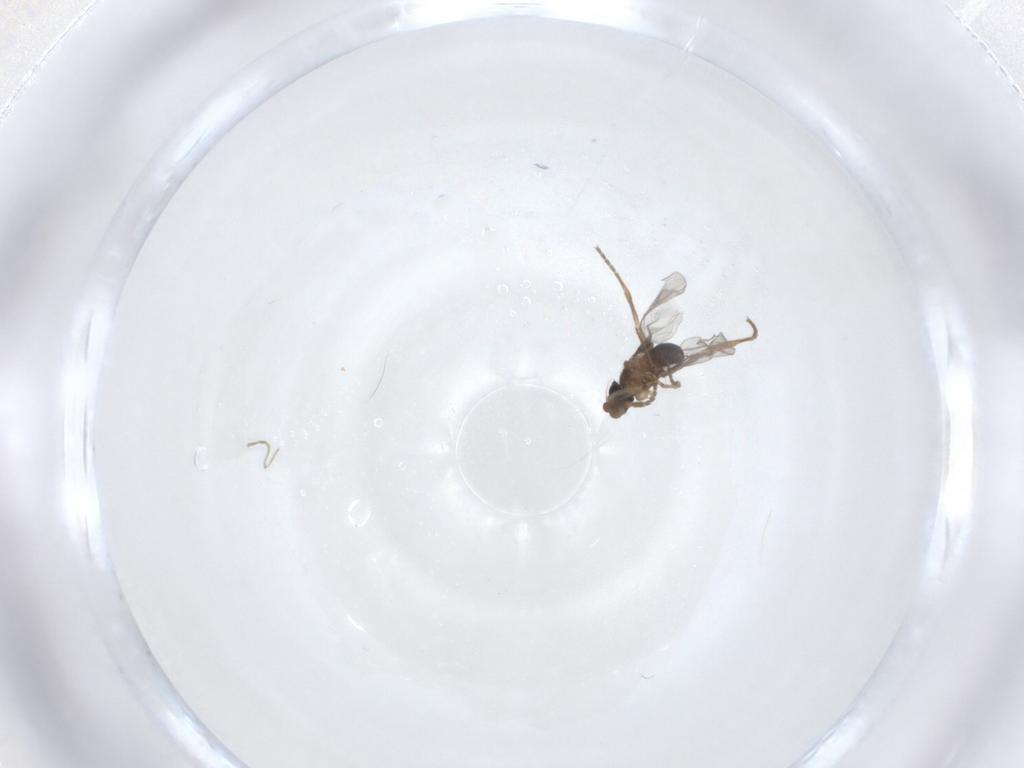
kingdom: Animalia
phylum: Arthropoda
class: Insecta
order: Diptera
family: Phoridae
